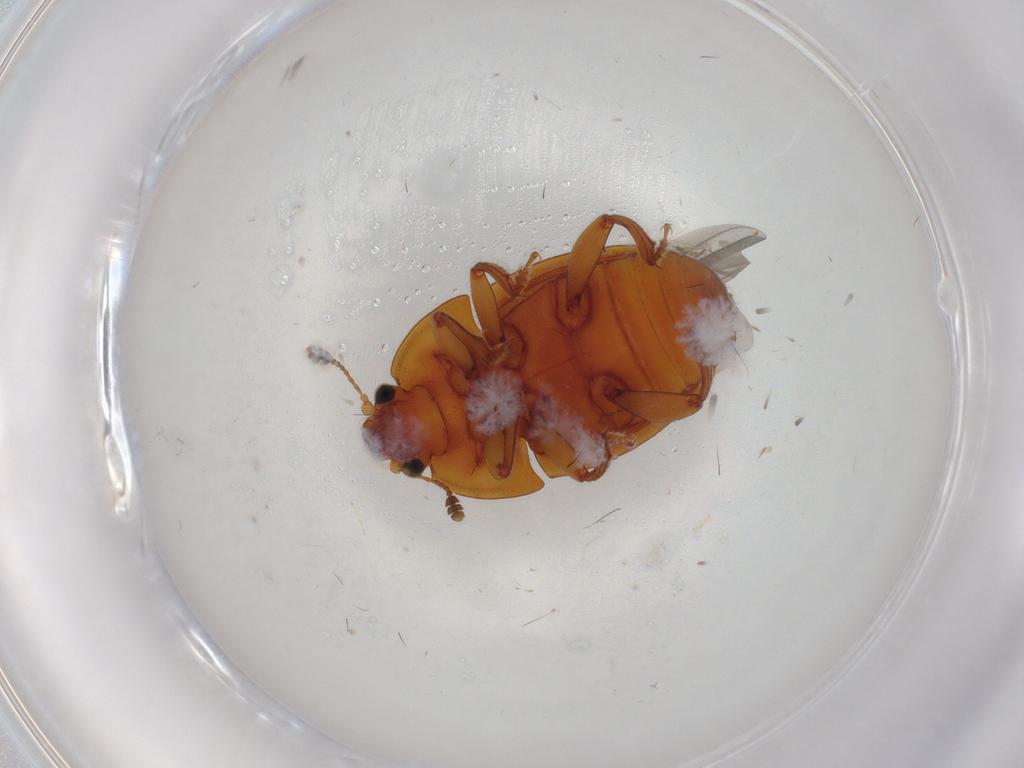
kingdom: Animalia
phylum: Arthropoda
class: Insecta
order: Coleoptera
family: Nitidulidae
